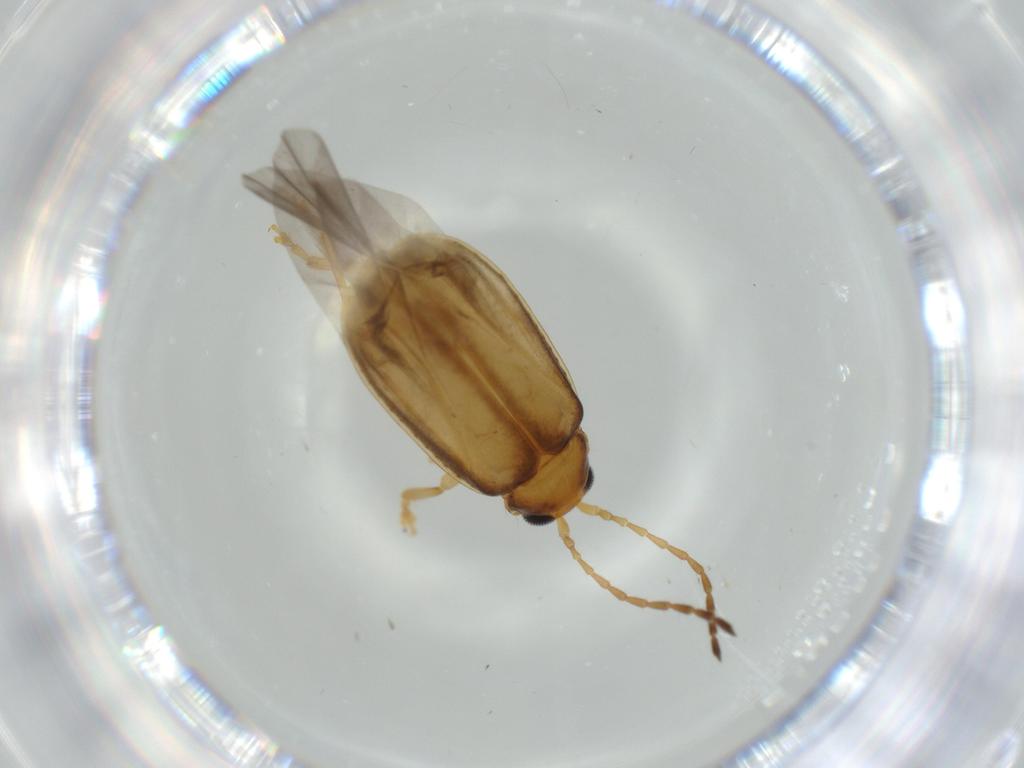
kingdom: Animalia
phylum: Arthropoda
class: Insecta
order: Coleoptera
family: Chrysomelidae
